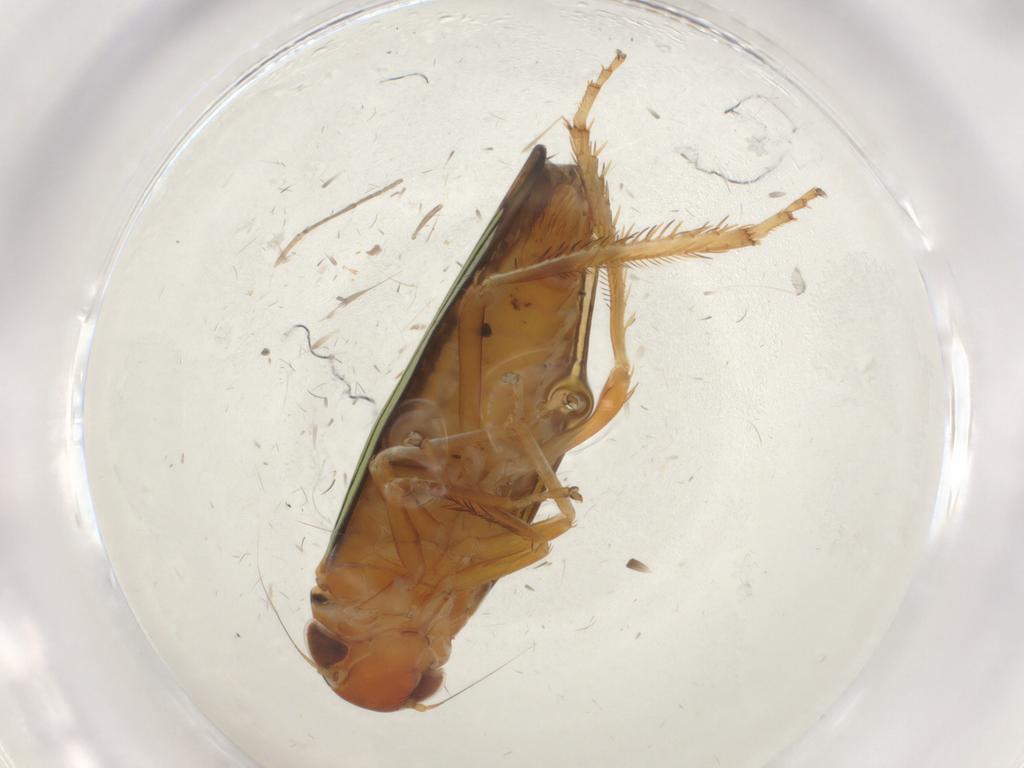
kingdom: Animalia
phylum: Arthropoda
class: Insecta
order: Hemiptera
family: Cicadellidae
